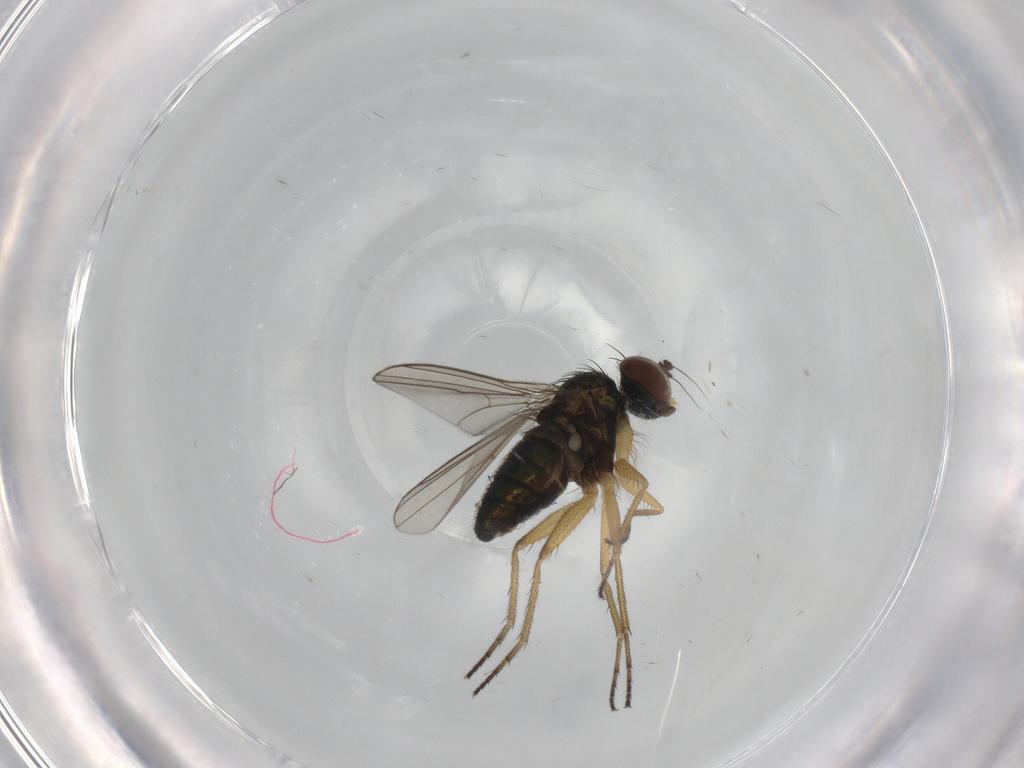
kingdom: Animalia
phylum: Arthropoda
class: Insecta
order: Diptera
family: Dolichopodidae
